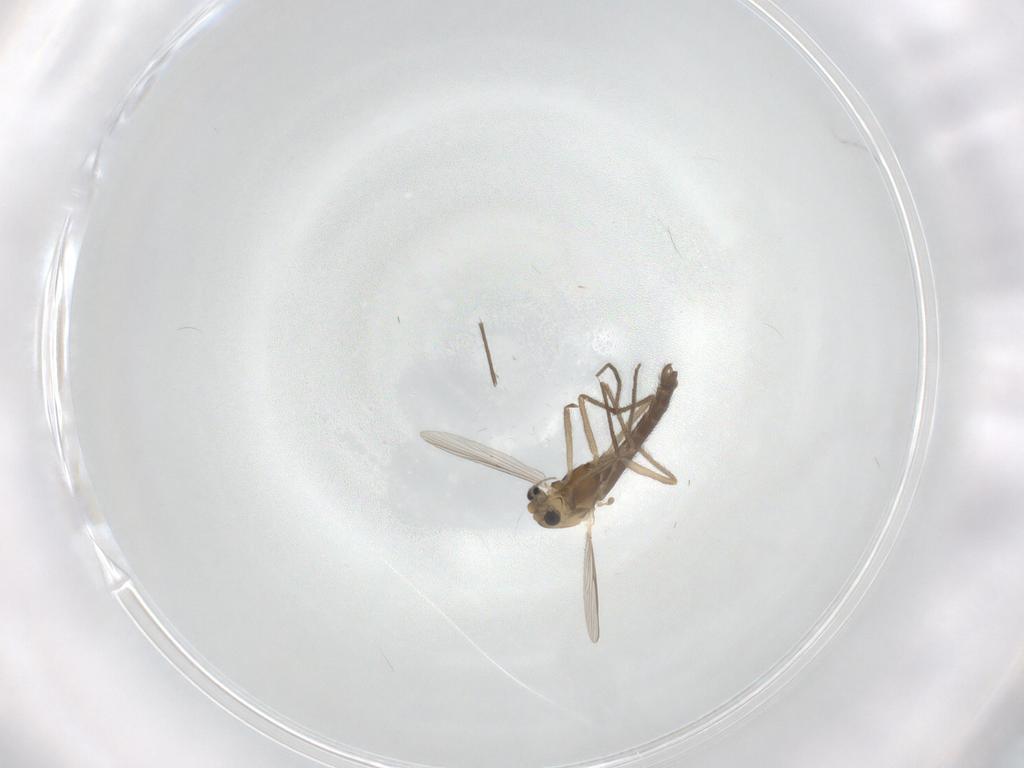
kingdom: Animalia
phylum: Arthropoda
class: Insecta
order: Diptera
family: Chironomidae
